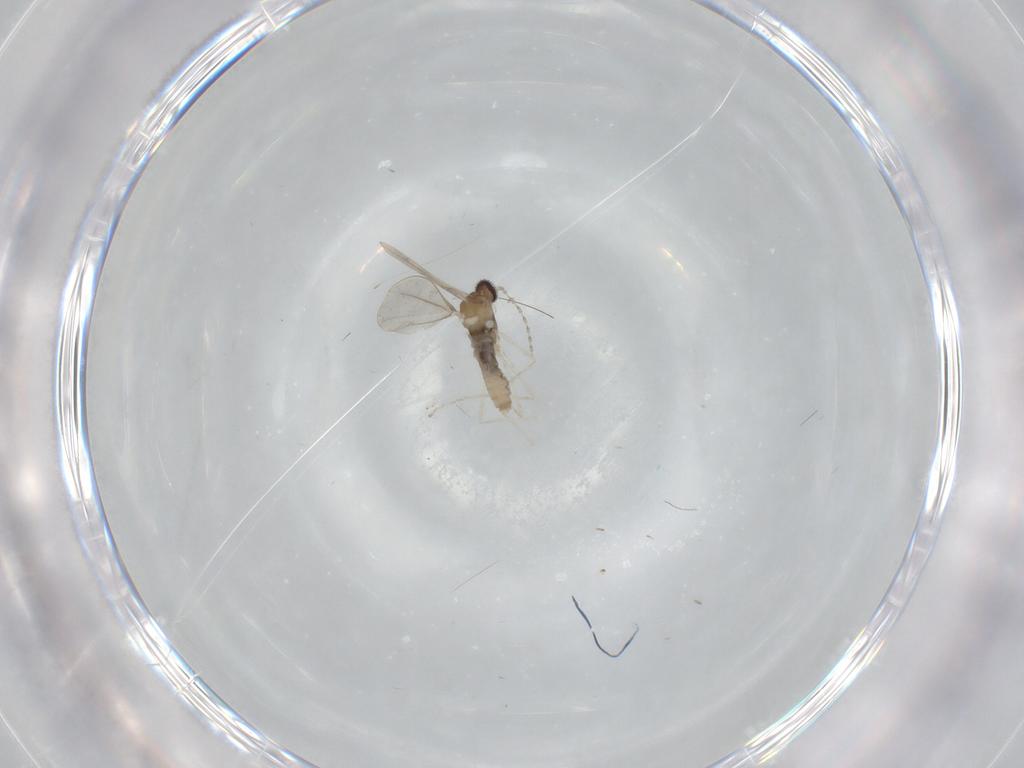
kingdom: Animalia
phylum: Arthropoda
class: Insecta
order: Diptera
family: Cecidomyiidae
